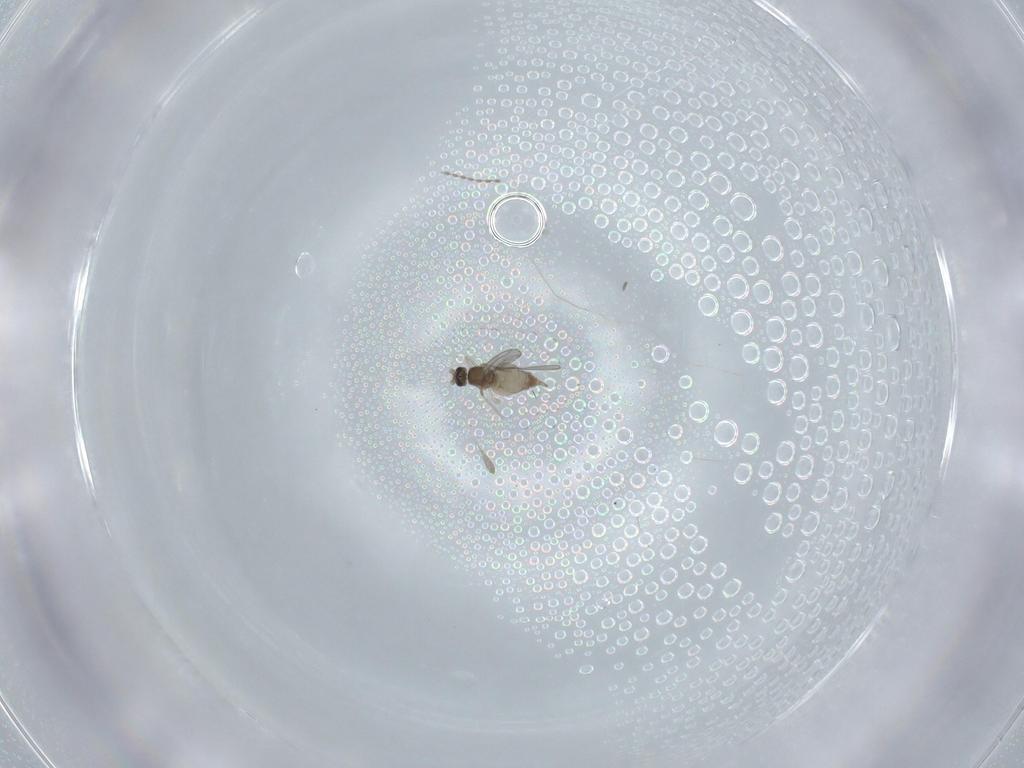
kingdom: Animalia
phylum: Arthropoda
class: Insecta
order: Diptera
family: Cecidomyiidae
